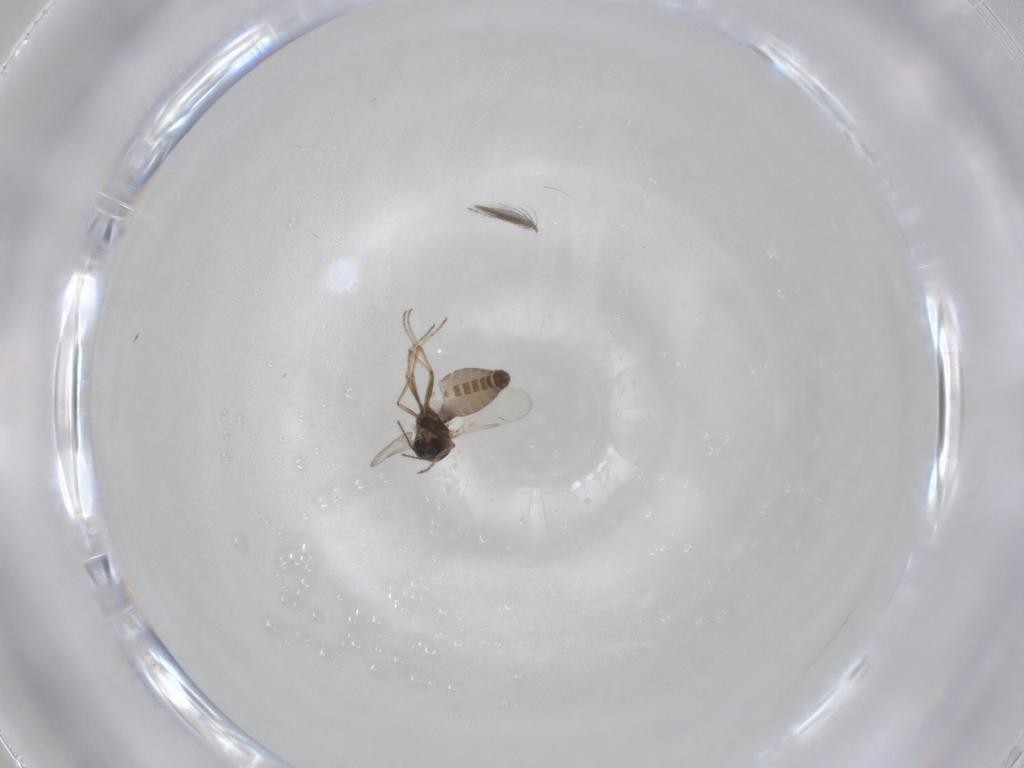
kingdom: Animalia
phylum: Arthropoda
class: Insecta
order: Diptera
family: Ceratopogonidae
